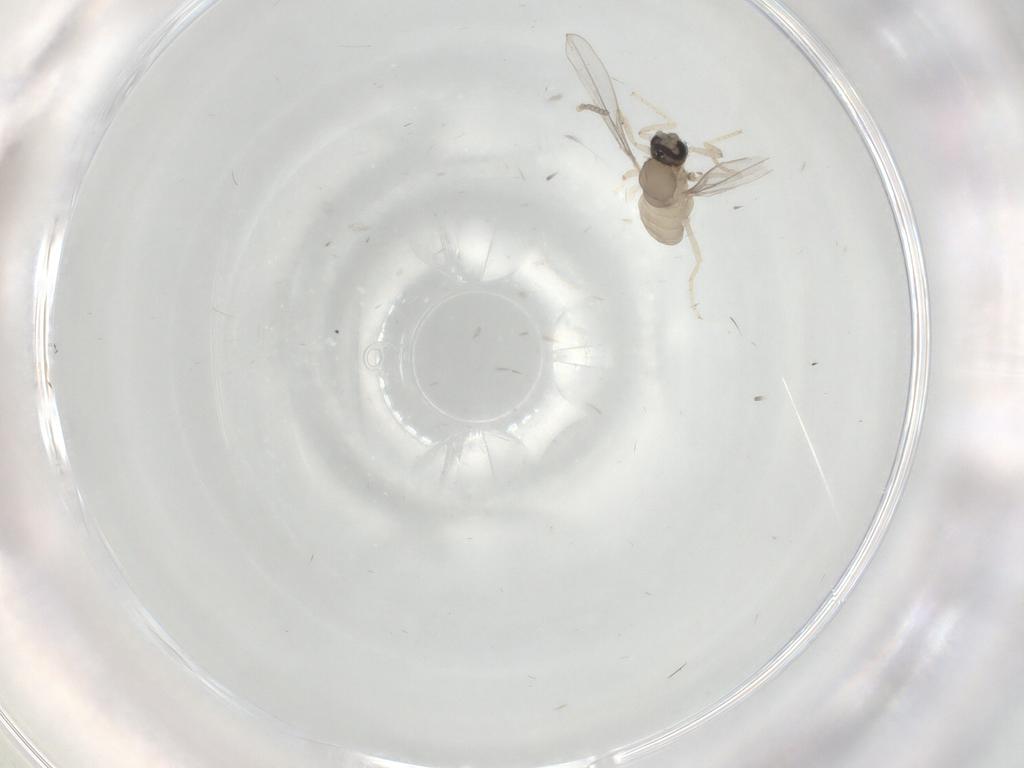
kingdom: Animalia
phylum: Arthropoda
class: Insecta
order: Diptera
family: Cecidomyiidae
